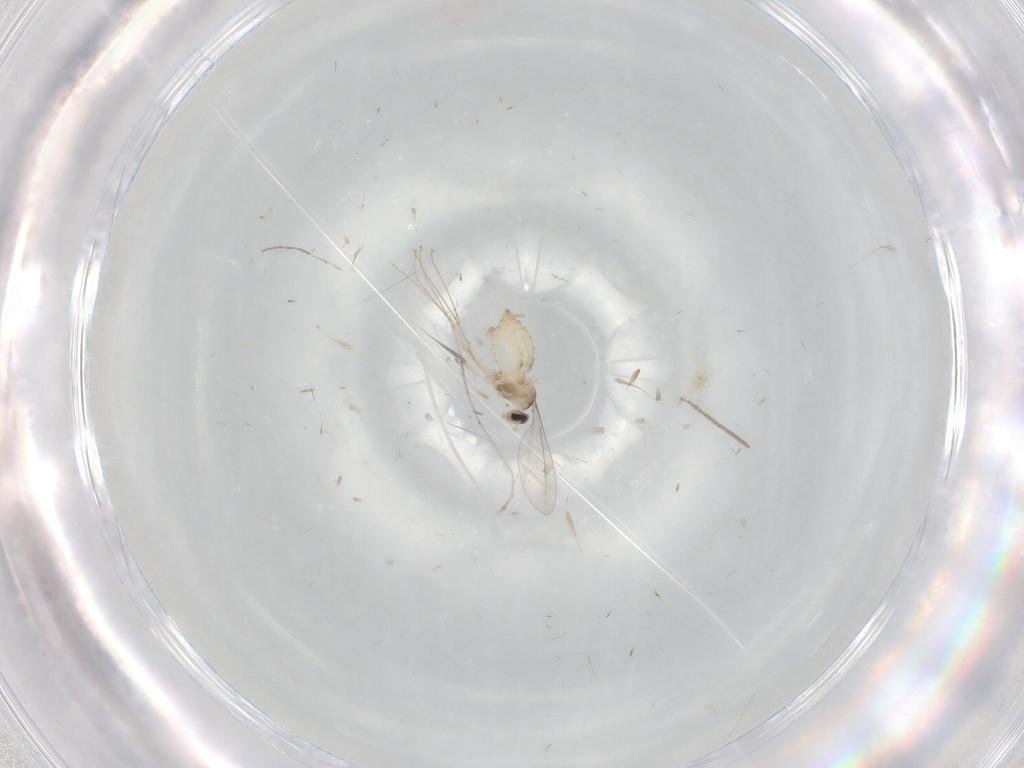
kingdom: Animalia
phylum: Arthropoda
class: Insecta
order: Diptera
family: Cecidomyiidae
